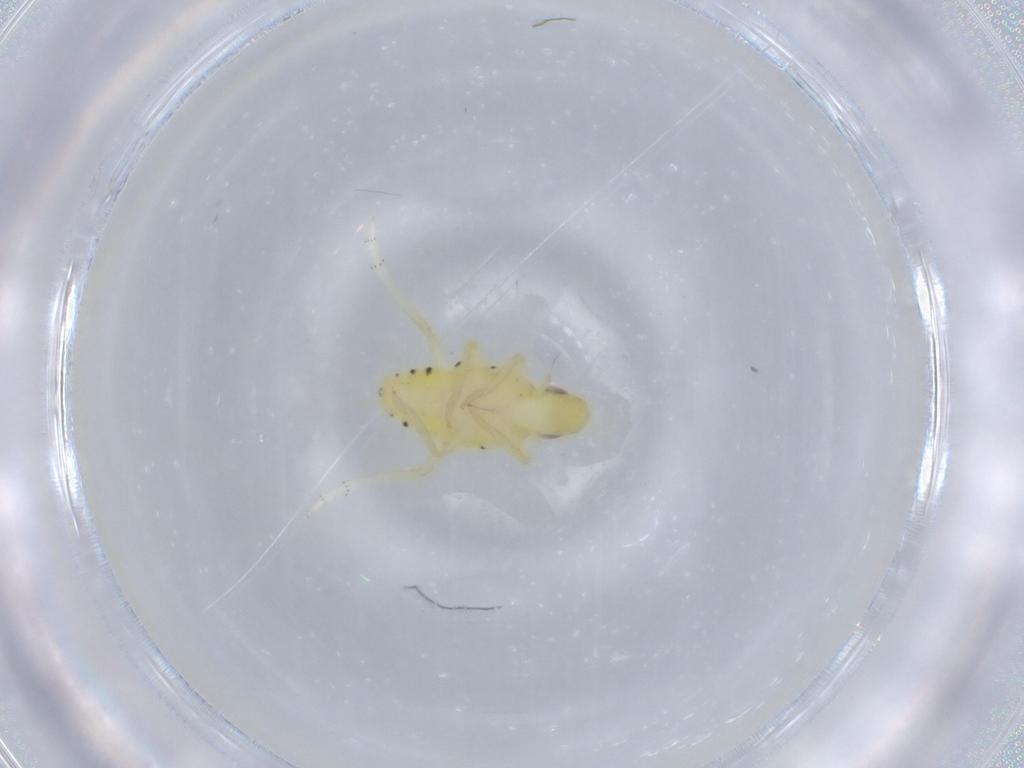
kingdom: Animalia
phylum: Arthropoda
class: Insecta
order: Hemiptera
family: Tropiduchidae
